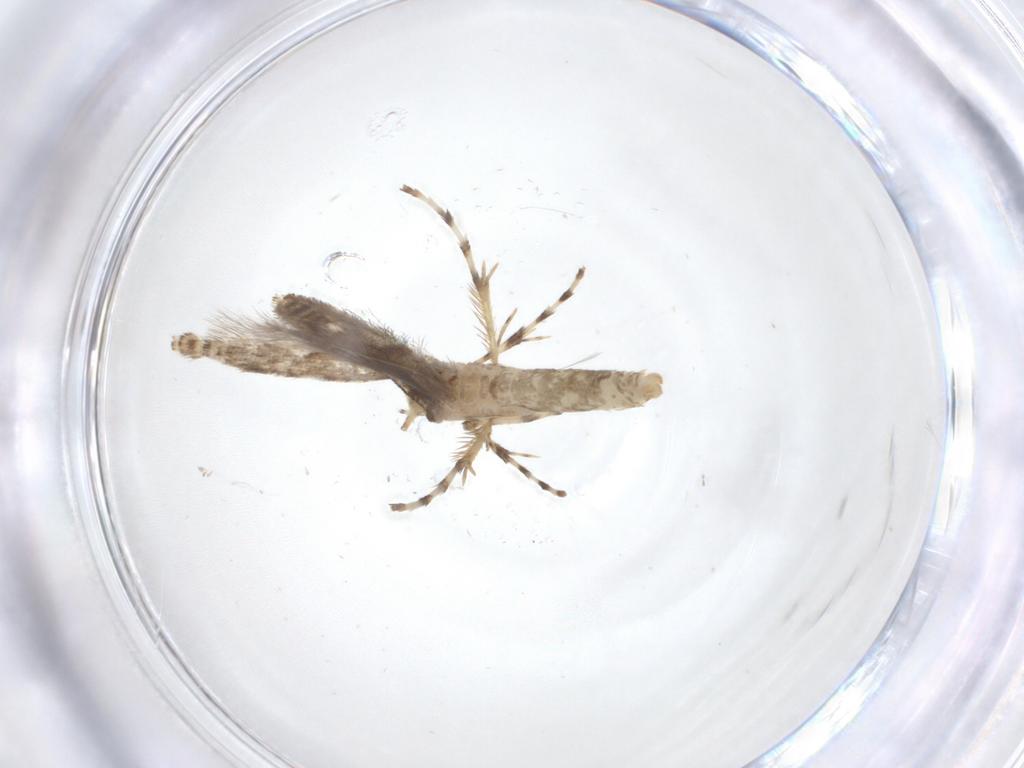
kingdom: Animalia
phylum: Arthropoda
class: Insecta
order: Lepidoptera
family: Gracillariidae
